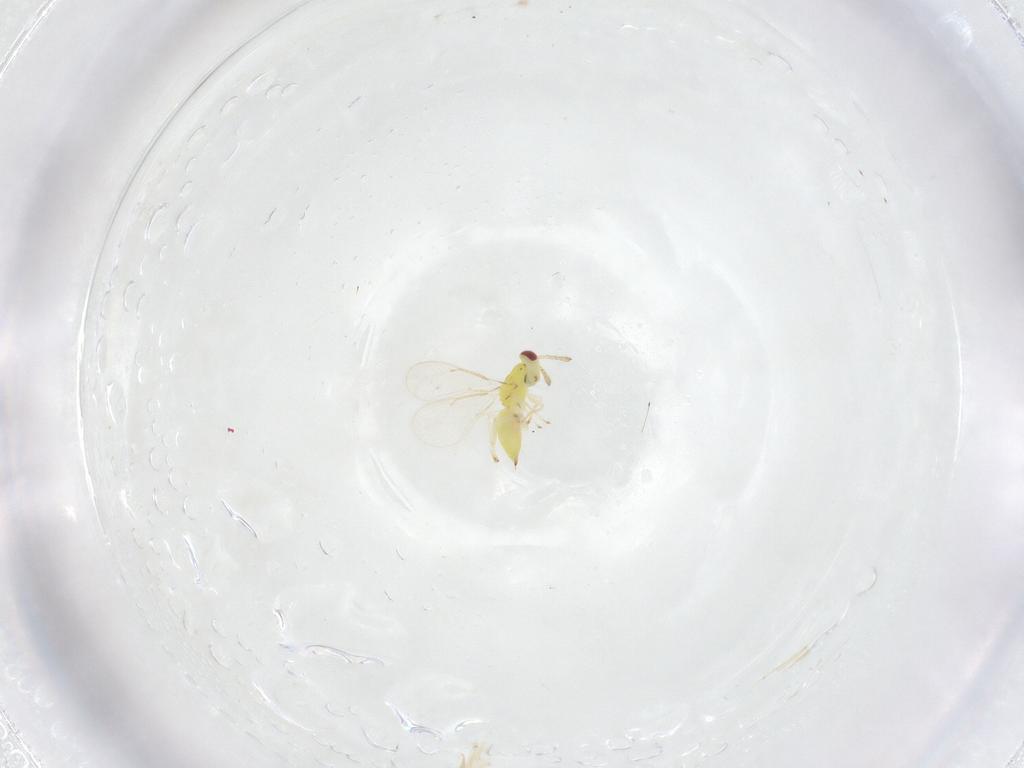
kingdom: Animalia
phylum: Arthropoda
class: Insecta
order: Hymenoptera
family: Eulophidae
